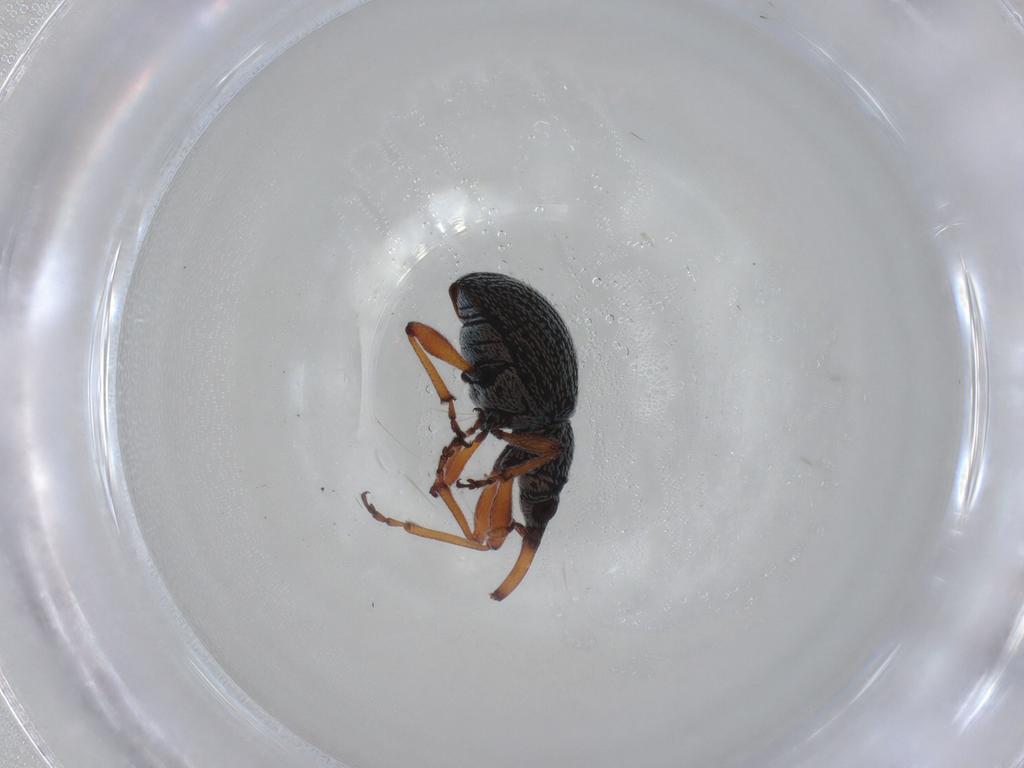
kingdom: Animalia
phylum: Arthropoda
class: Insecta
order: Coleoptera
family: Brentidae
